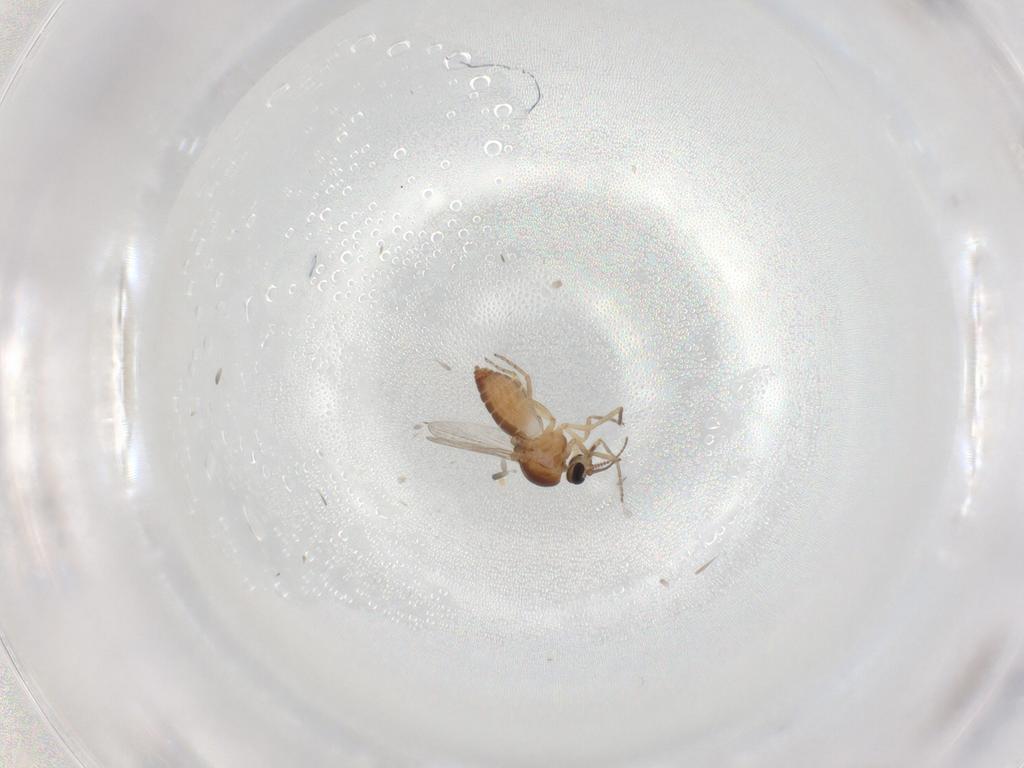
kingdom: Animalia
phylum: Arthropoda
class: Insecta
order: Diptera
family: Ceratopogonidae
